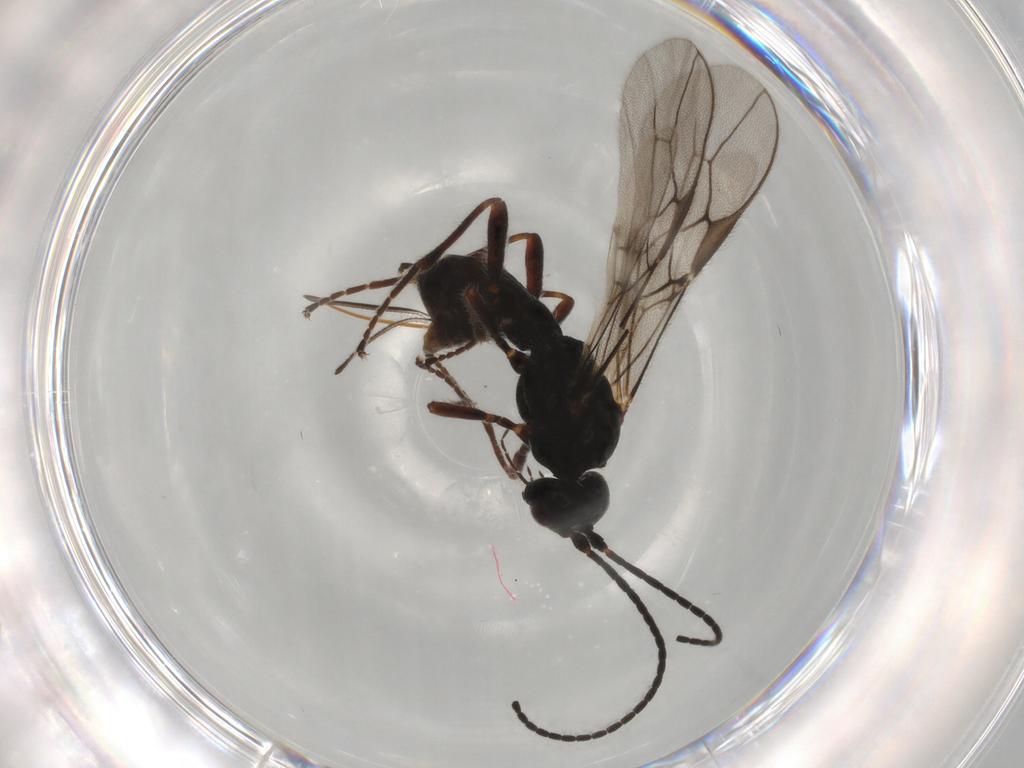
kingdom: Animalia
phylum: Arthropoda
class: Insecta
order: Hymenoptera
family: Braconidae
